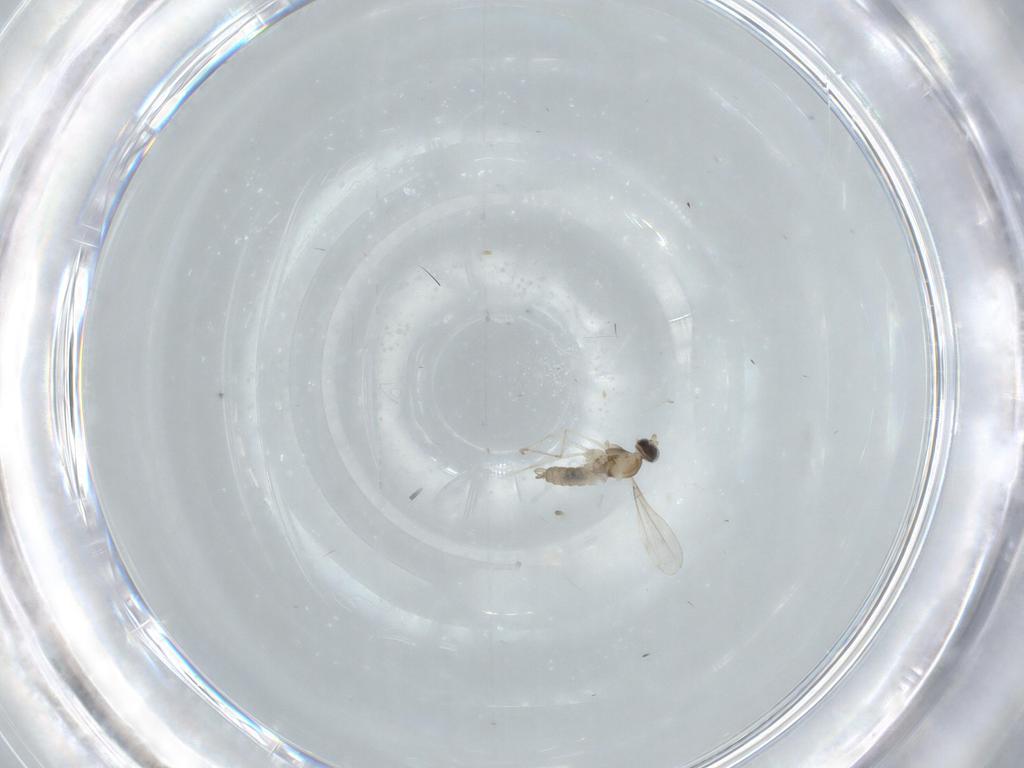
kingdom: Animalia
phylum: Arthropoda
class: Insecta
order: Diptera
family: Cecidomyiidae
